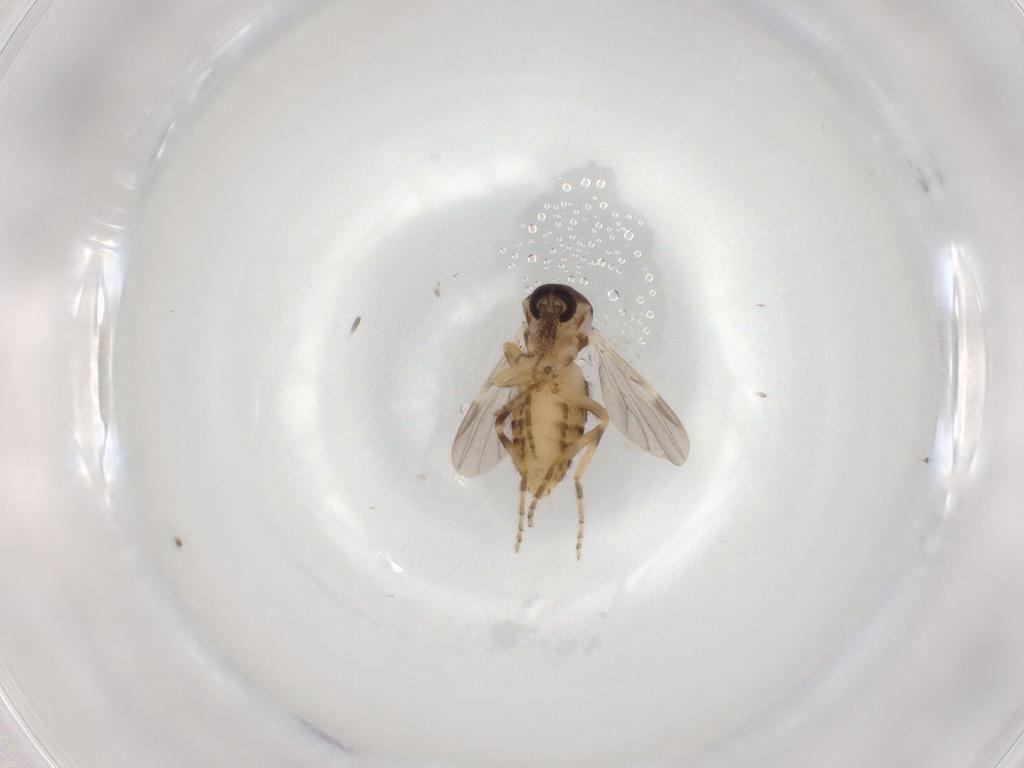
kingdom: Animalia
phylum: Arthropoda
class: Insecta
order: Diptera
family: Ceratopogonidae
